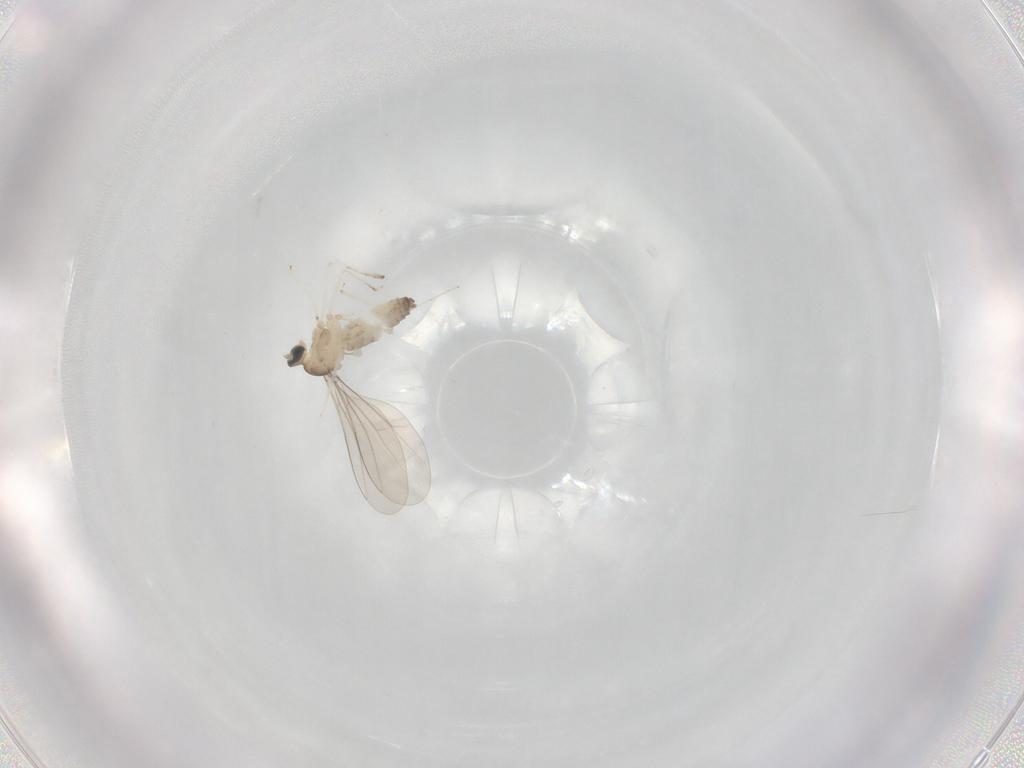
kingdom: Animalia
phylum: Arthropoda
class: Insecta
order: Diptera
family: Cecidomyiidae
